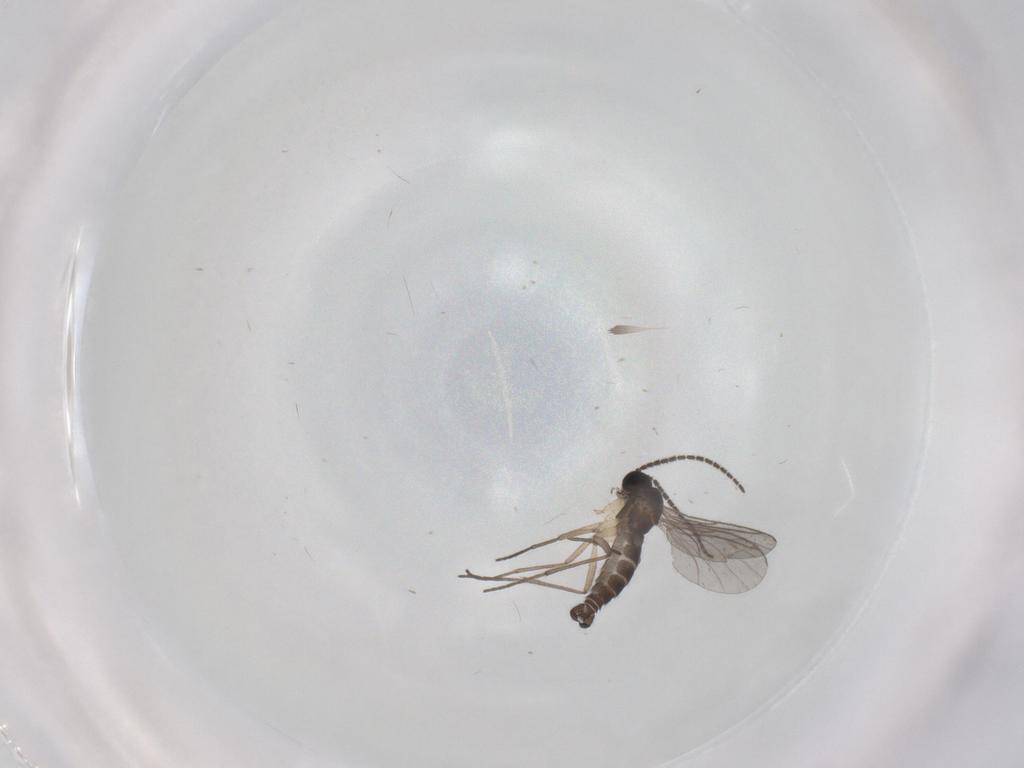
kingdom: Animalia
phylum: Arthropoda
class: Insecta
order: Diptera
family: Sciaridae
